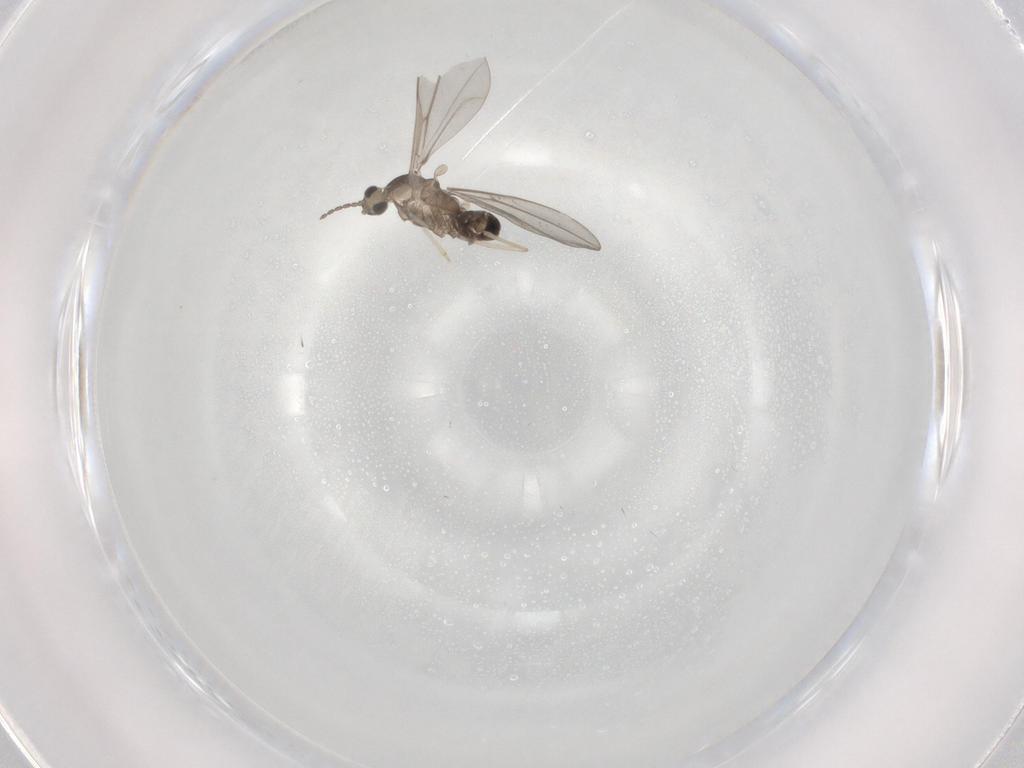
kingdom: Animalia
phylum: Arthropoda
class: Insecta
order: Diptera
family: Cecidomyiidae
